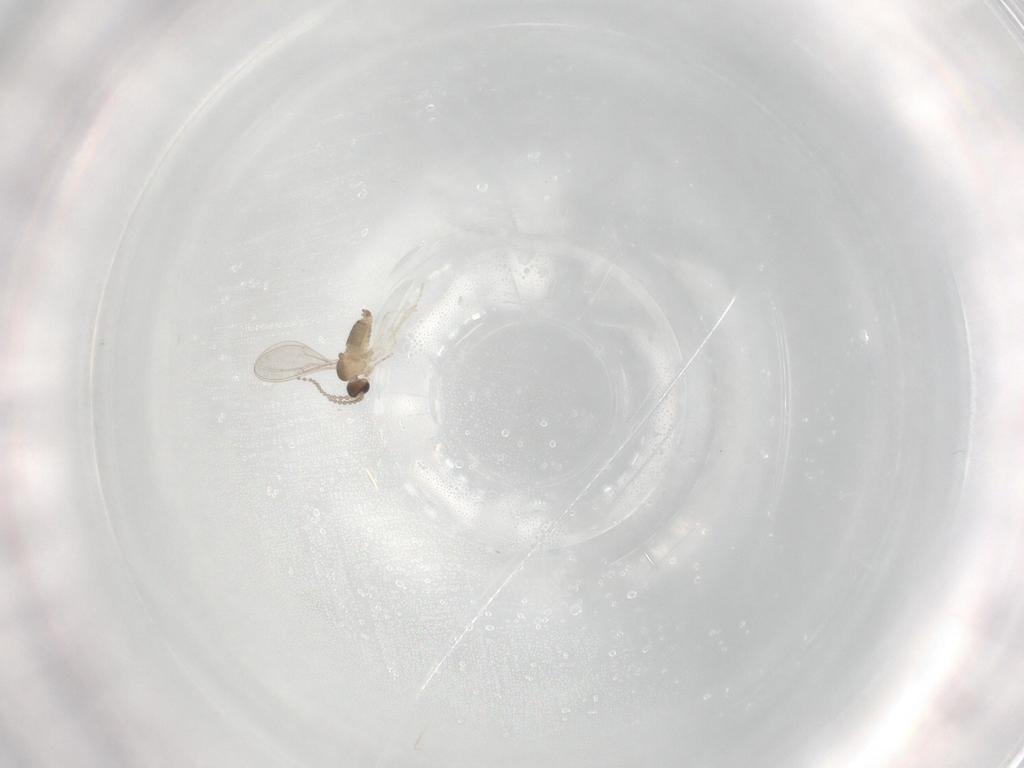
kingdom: Animalia
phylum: Arthropoda
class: Insecta
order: Diptera
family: Cecidomyiidae
